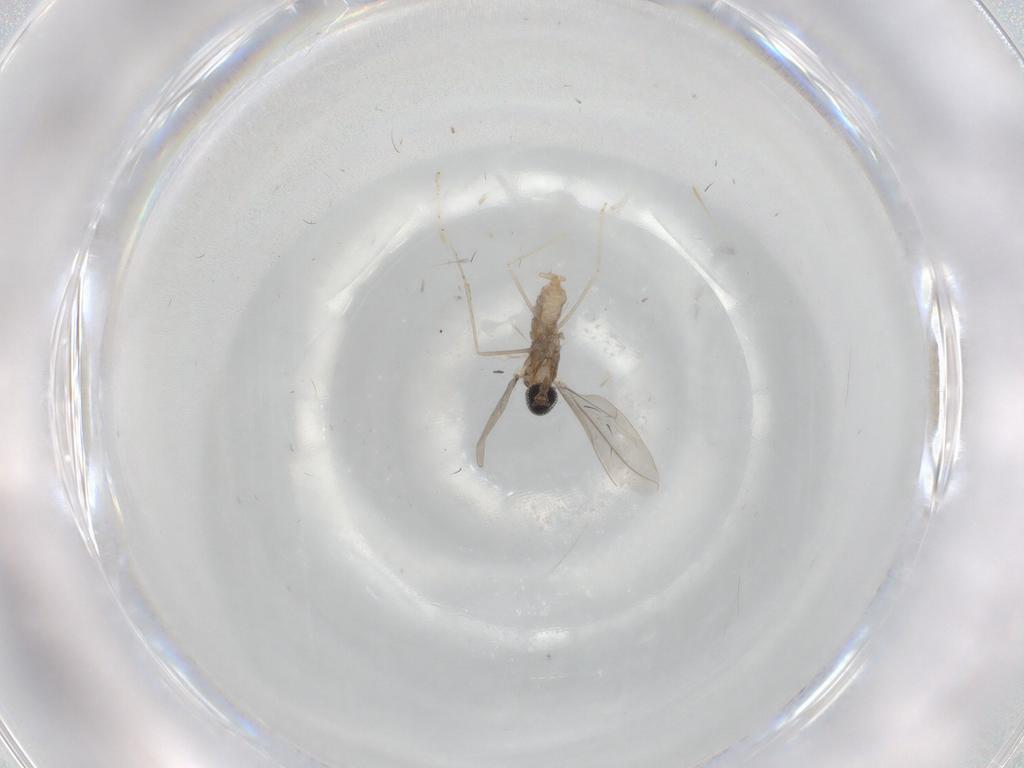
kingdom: Animalia
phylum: Arthropoda
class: Insecta
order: Diptera
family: Cecidomyiidae
